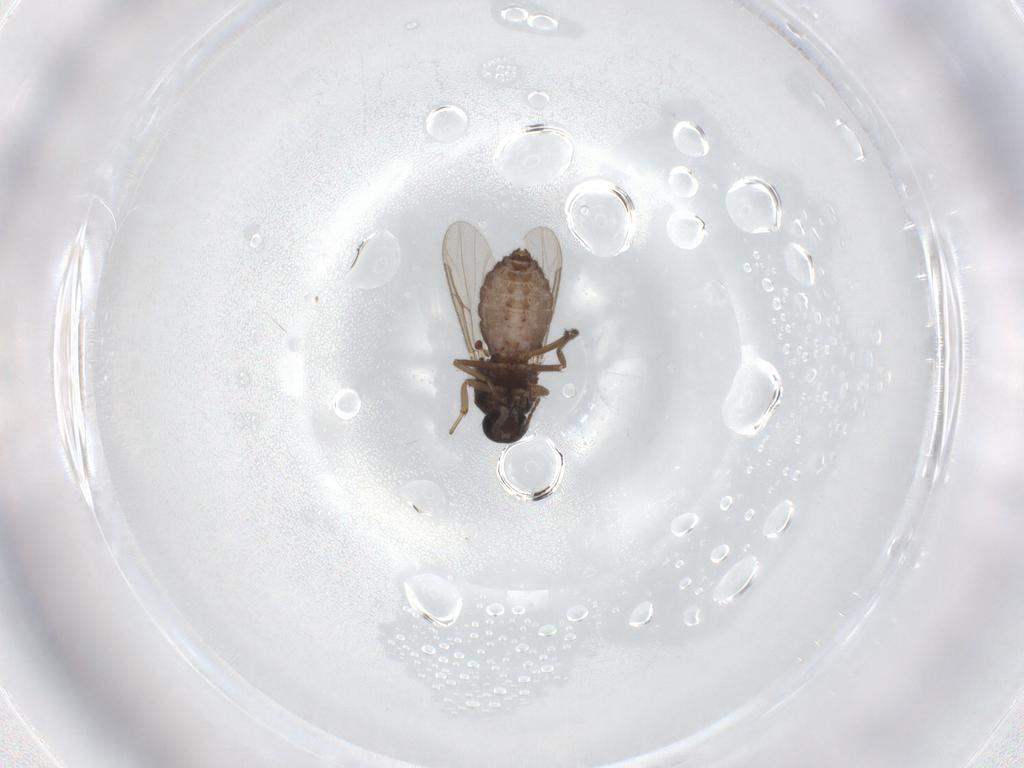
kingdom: Animalia
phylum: Arthropoda
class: Insecta
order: Diptera
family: Ceratopogonidae
